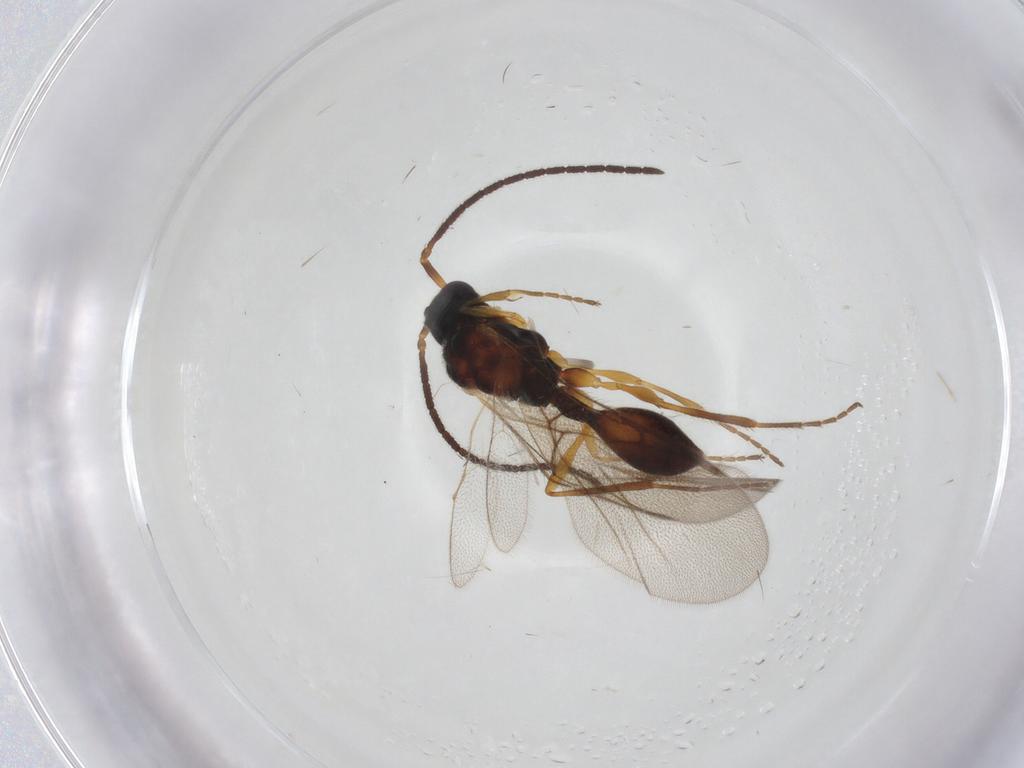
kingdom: Animalia
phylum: Arthropoda
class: Insecta
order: Hymenoptera
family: Diapriidae
